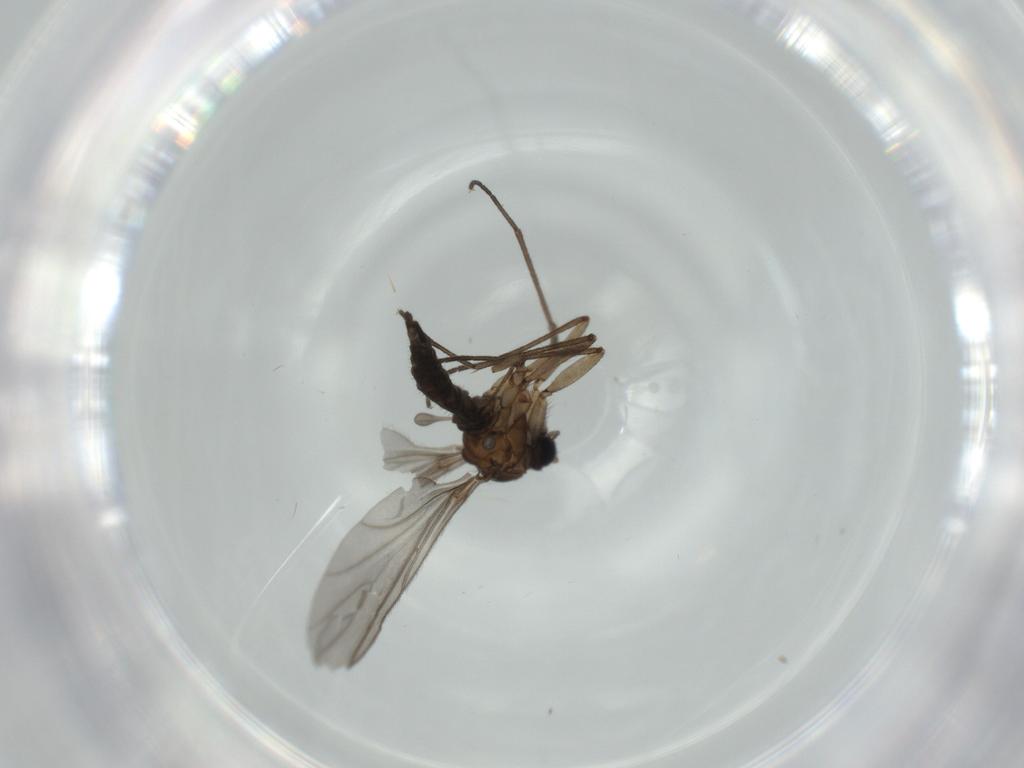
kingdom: Animalia
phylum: Arthropoda
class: Insecta
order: Diptera
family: Sciaridae
